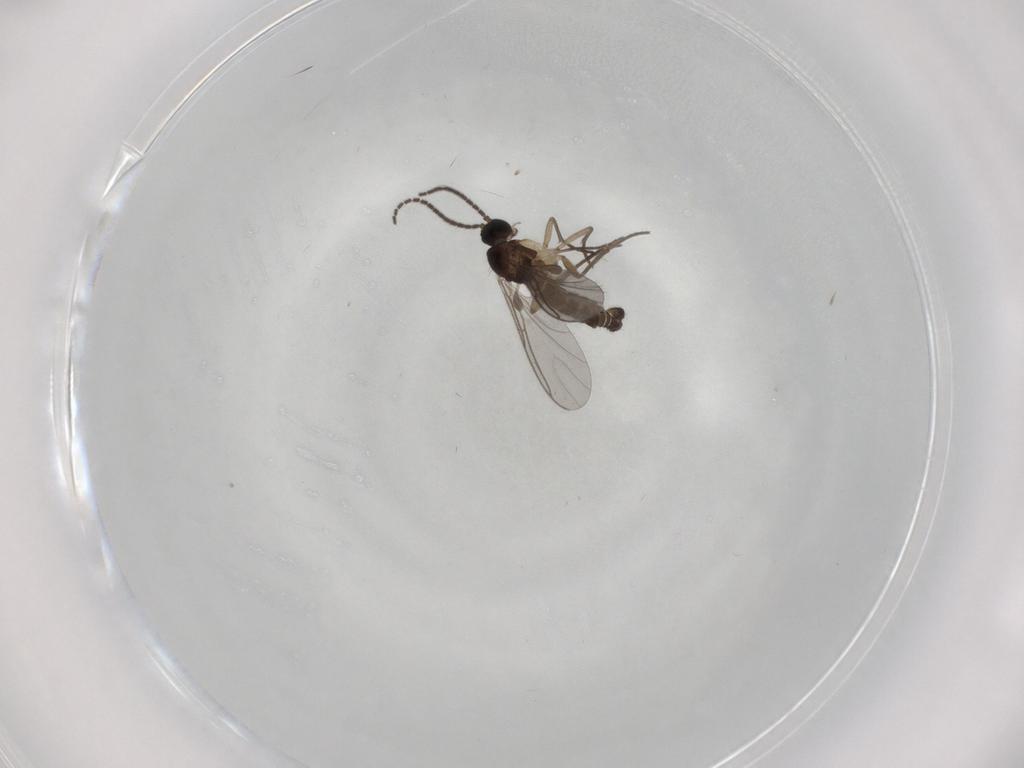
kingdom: Animalia
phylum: Arthropoda
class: Insecta
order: Diptera
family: Sciaridae
